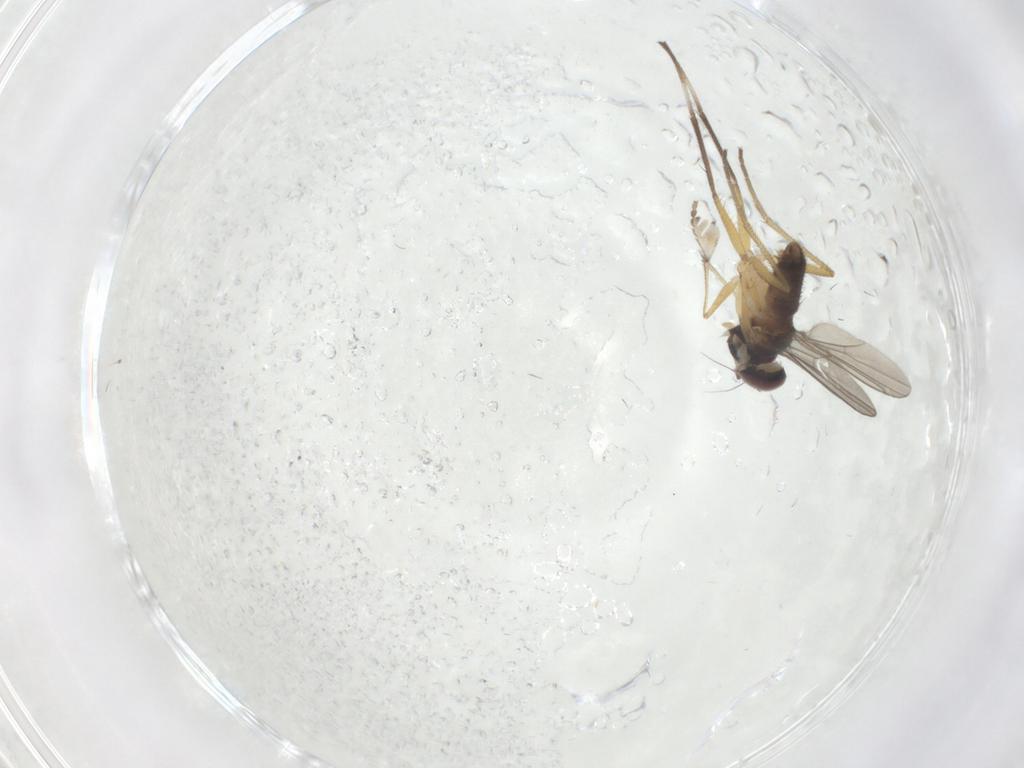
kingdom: Animalia
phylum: Arthropoda
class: Insecta
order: Diptera
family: Dolichopodidae
